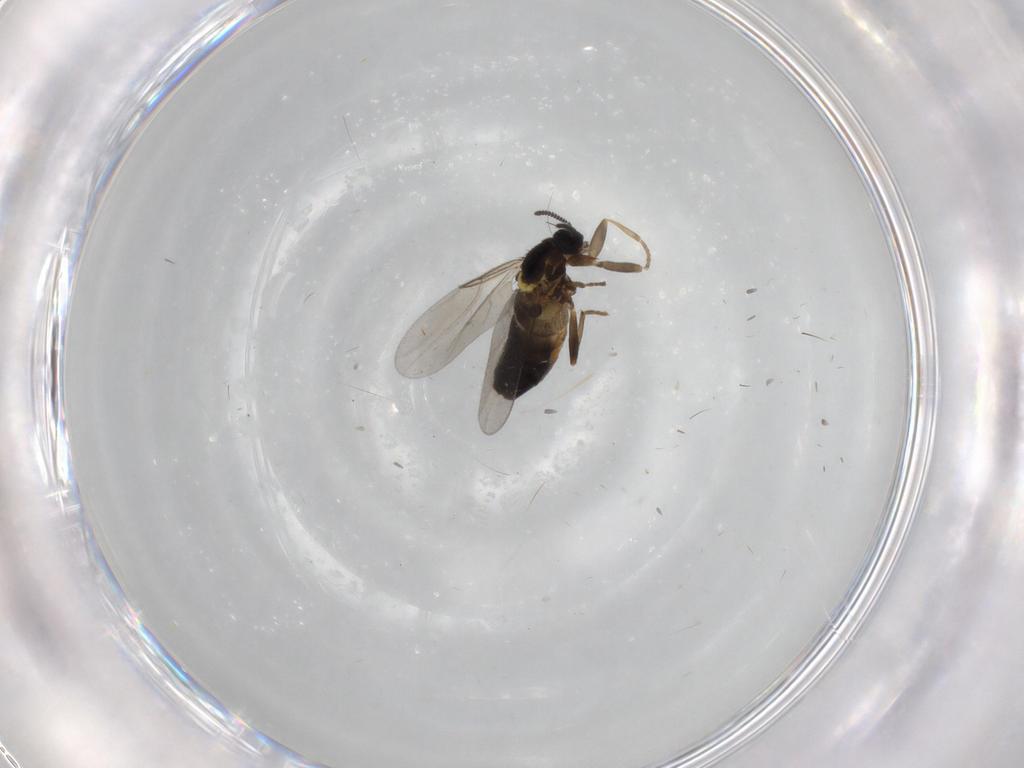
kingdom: Animalia
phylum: Arthropoda
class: Insecta
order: Diptera
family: Scatopsidae
